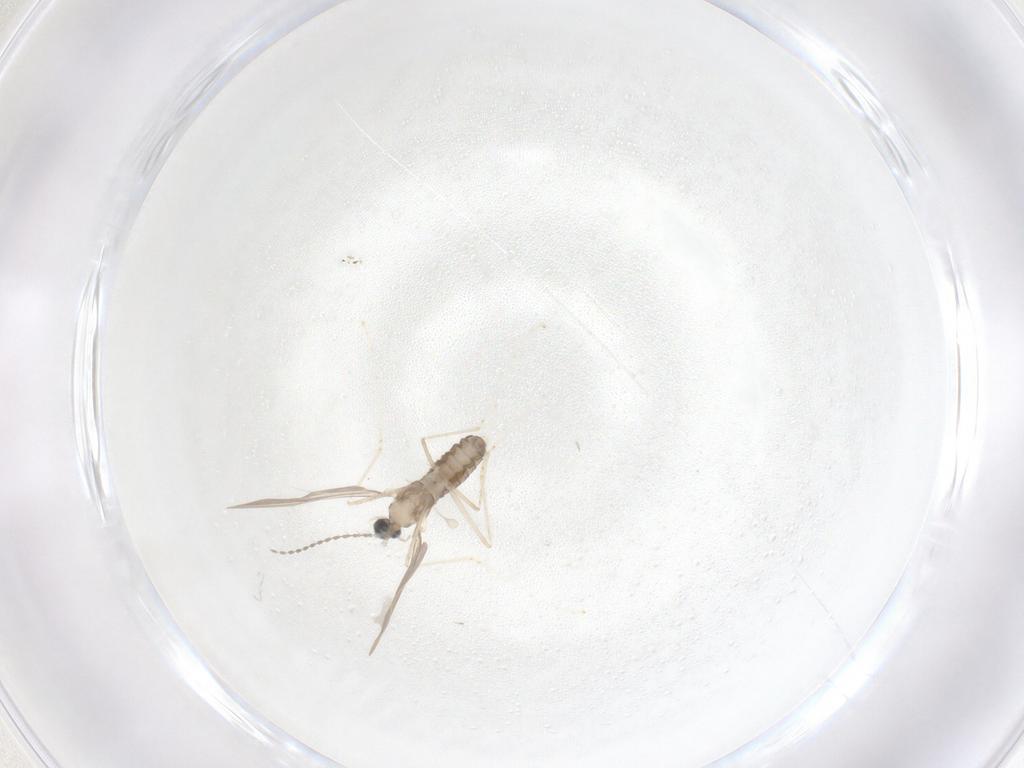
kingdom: Animalia
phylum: Arthropoda
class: Insecta
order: Diptera
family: Cecidomyiidae
